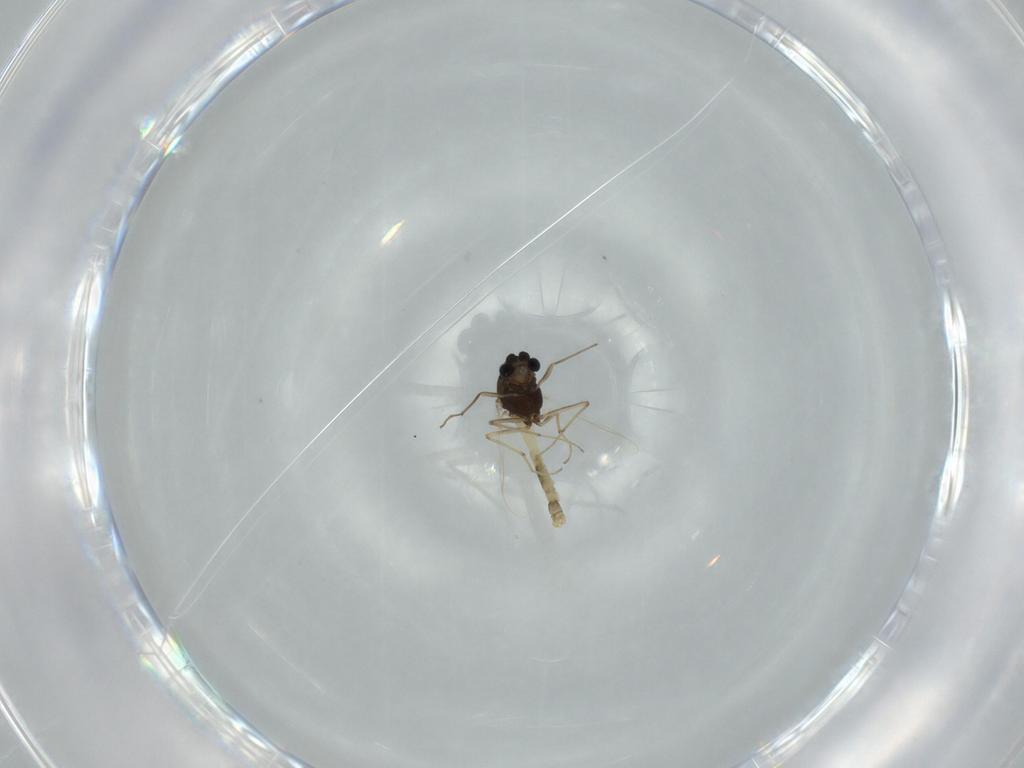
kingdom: Animalia
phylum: Arthropoda
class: Insecta
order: Diptera
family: Chironomidae
